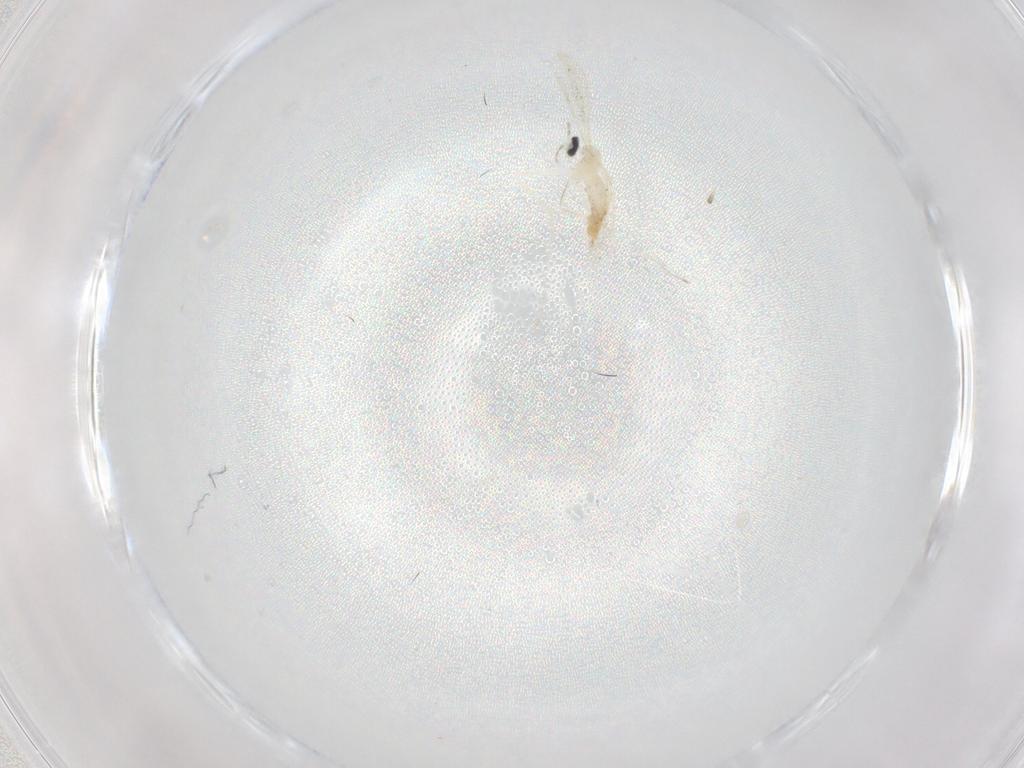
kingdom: Animalia
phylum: Arthropoda
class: Insecta
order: Diptera
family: Cecidomyiidae
